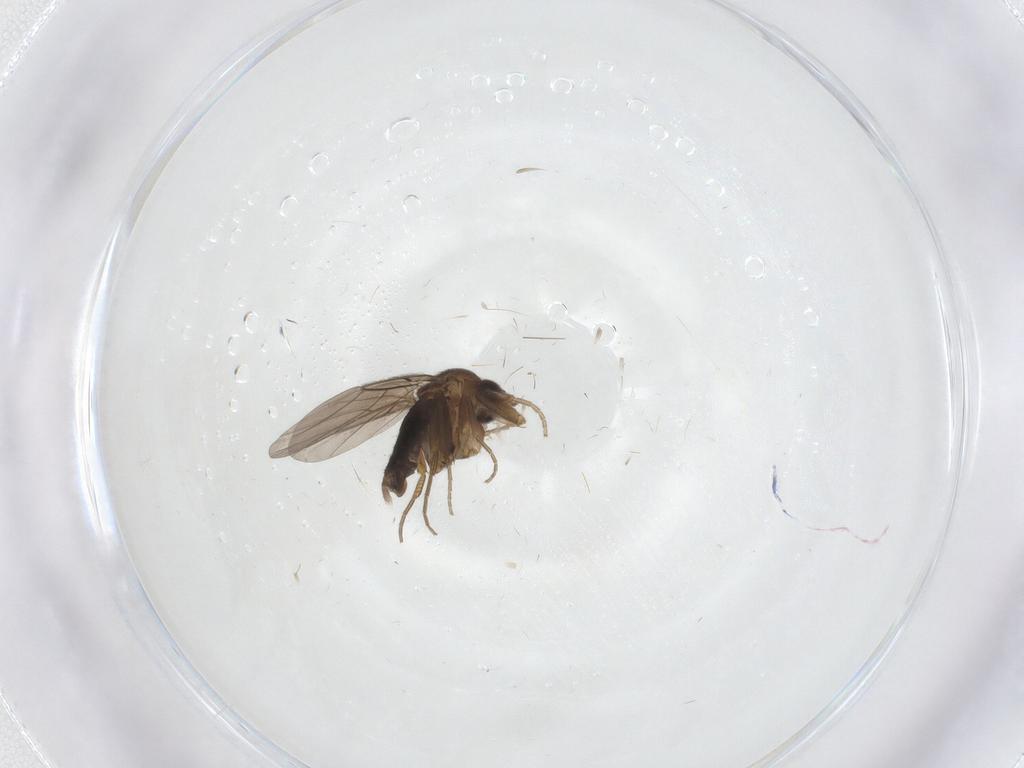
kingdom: Animalia
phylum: Arthropoda
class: Insecta
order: Diptera
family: Phoridae
